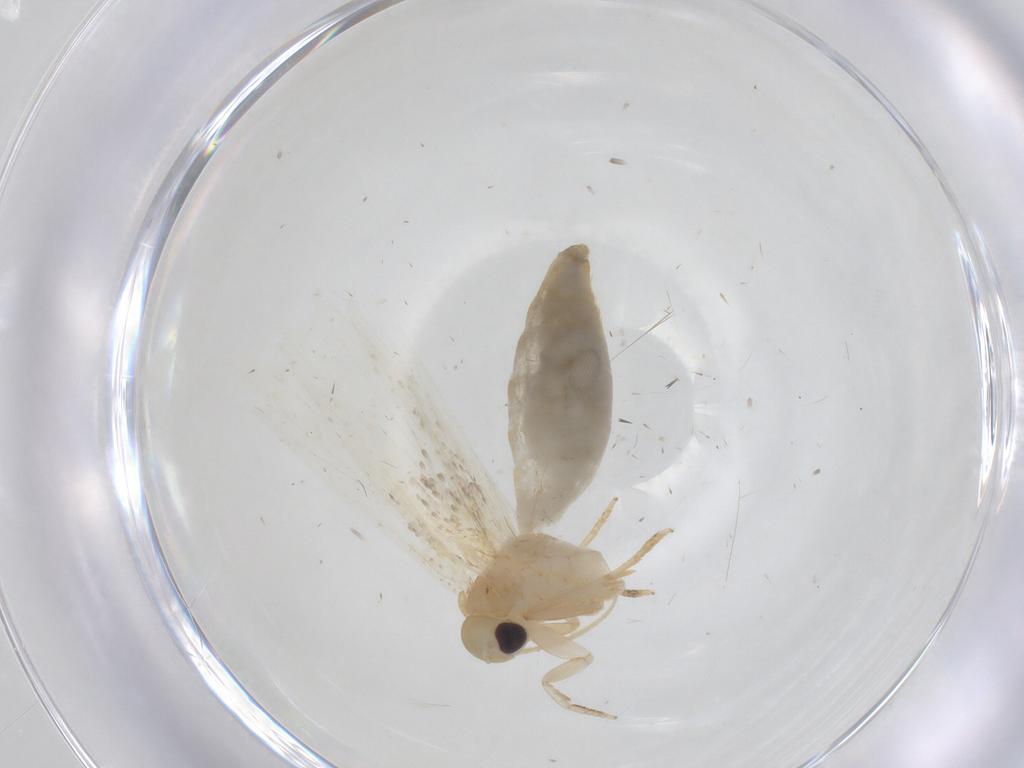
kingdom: Animalia
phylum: Arthropoda
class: Insecta
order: Lepidoptera
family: Erebidae
